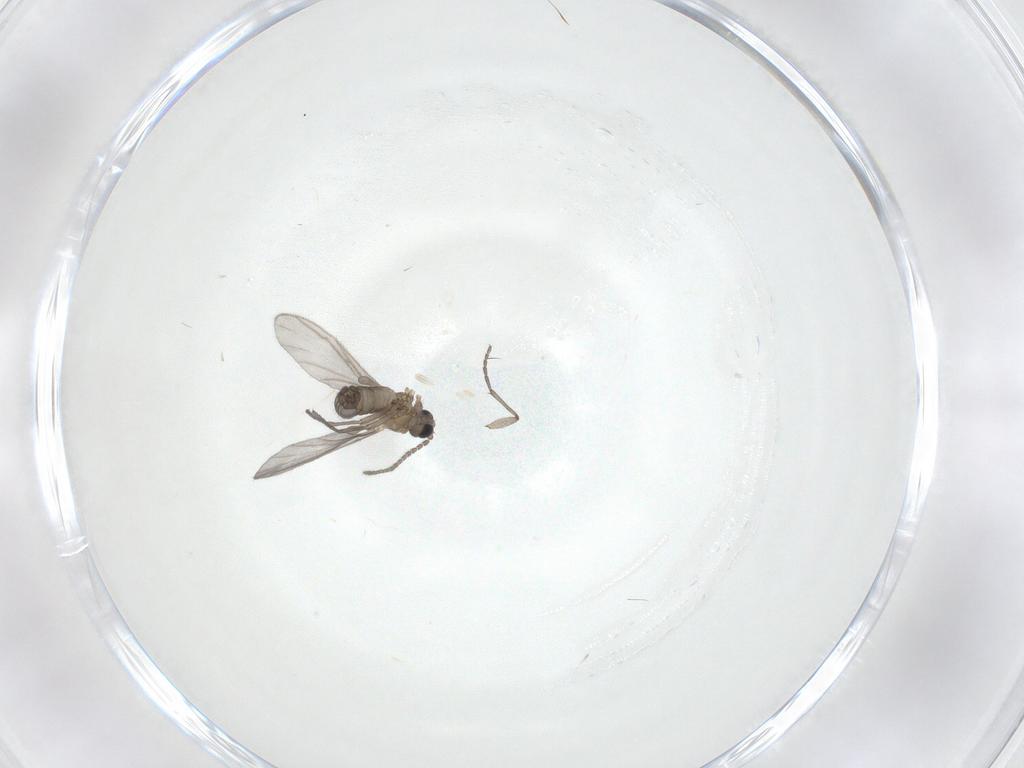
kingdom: Animalia
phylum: Arthropoda
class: Insecta
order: Diptera
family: Sciaridae
